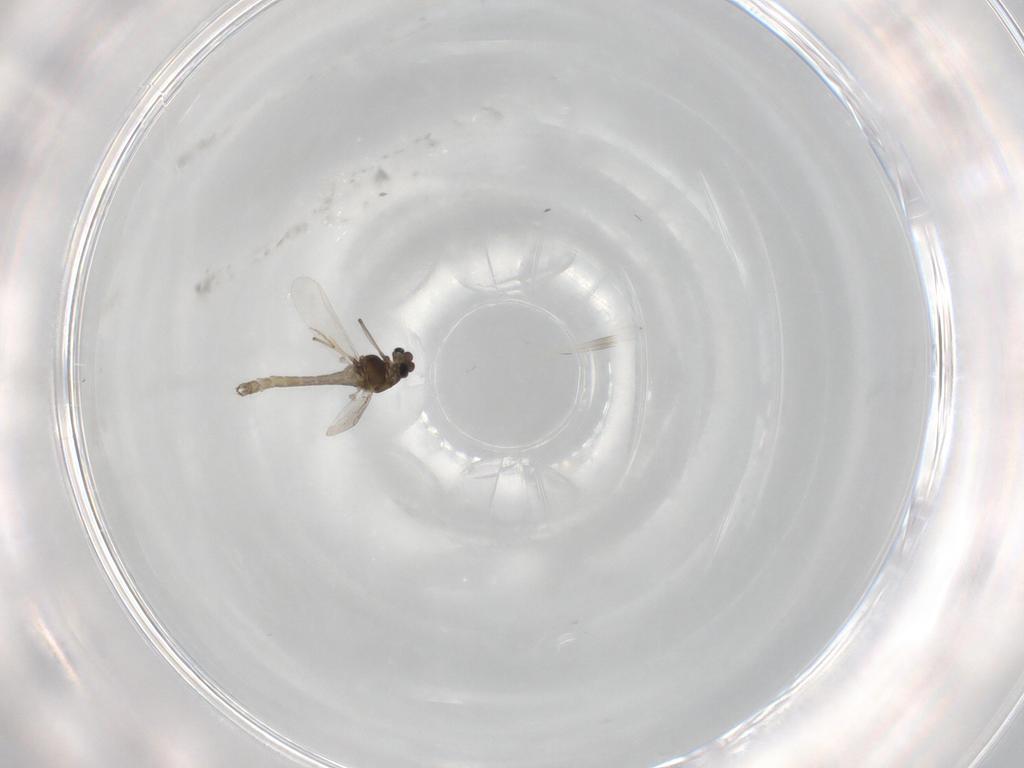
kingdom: Animalia
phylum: Arthropoda
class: Insecta
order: Diptera
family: Chironomidae
